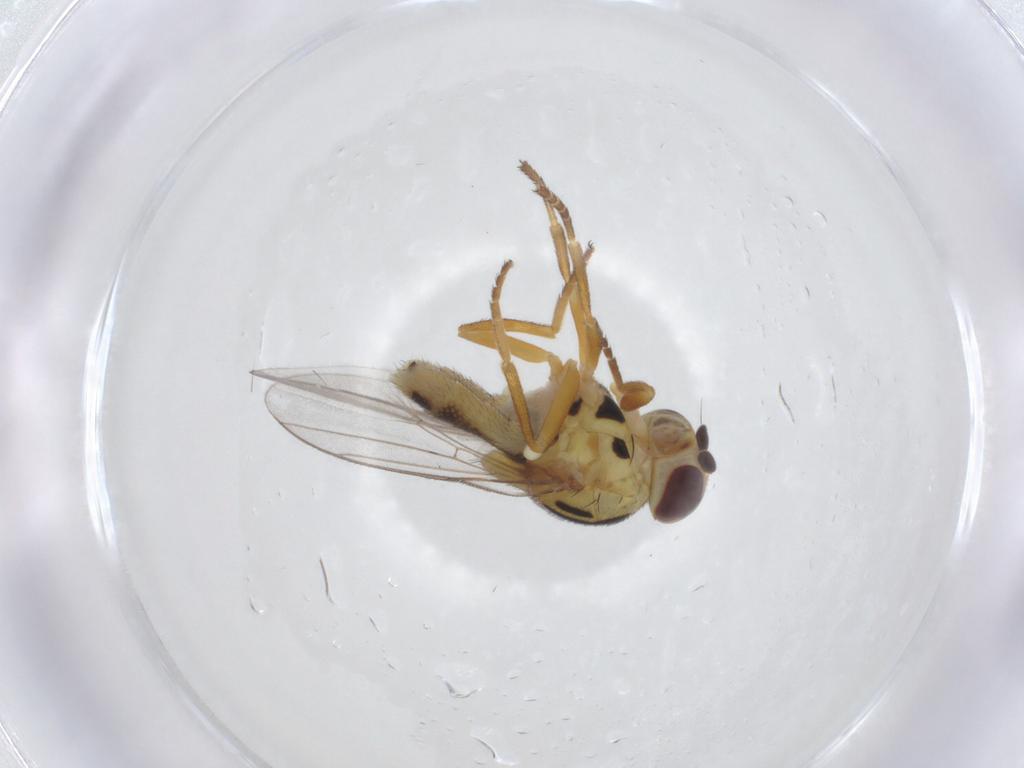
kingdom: Animalia
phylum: Arthropoda
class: Insecta
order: Diptera
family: Chloropidae
